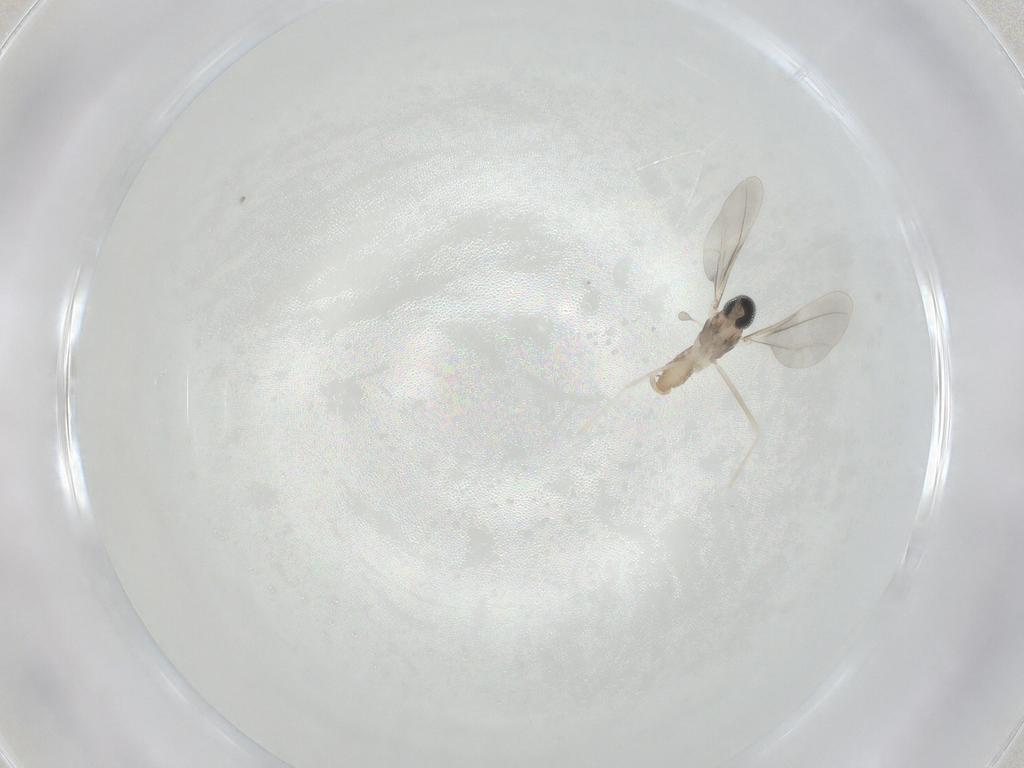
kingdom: Animalia
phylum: Arthropoda
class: Insecta
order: Diptera
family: Cecidomyiidae
